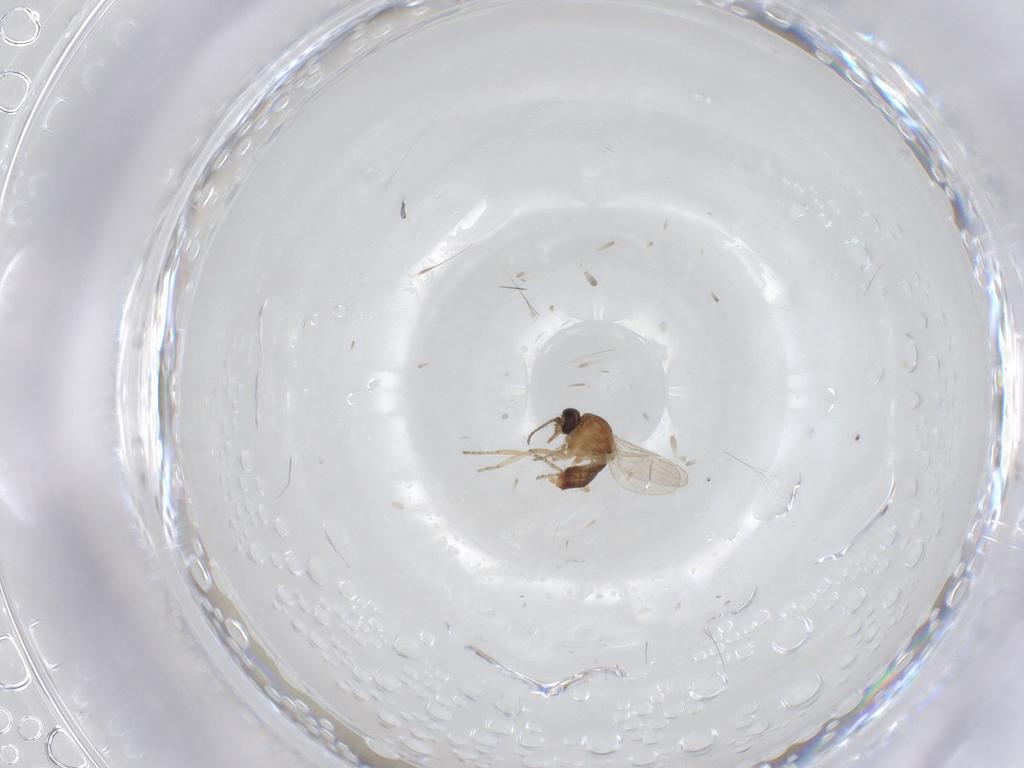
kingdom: Animalia
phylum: Arthropoda
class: Insecta
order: Diptera
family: Ceratopogonidae
